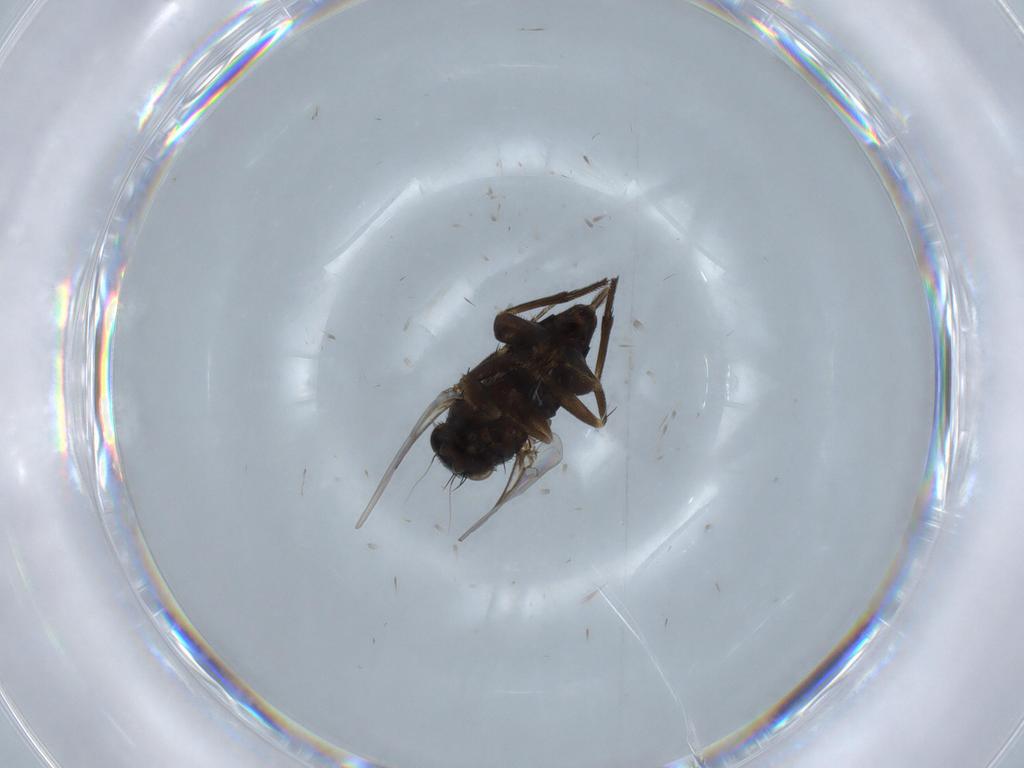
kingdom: Animalia
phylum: Arthropoda
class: Insecta
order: Diptera
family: Phoridae
